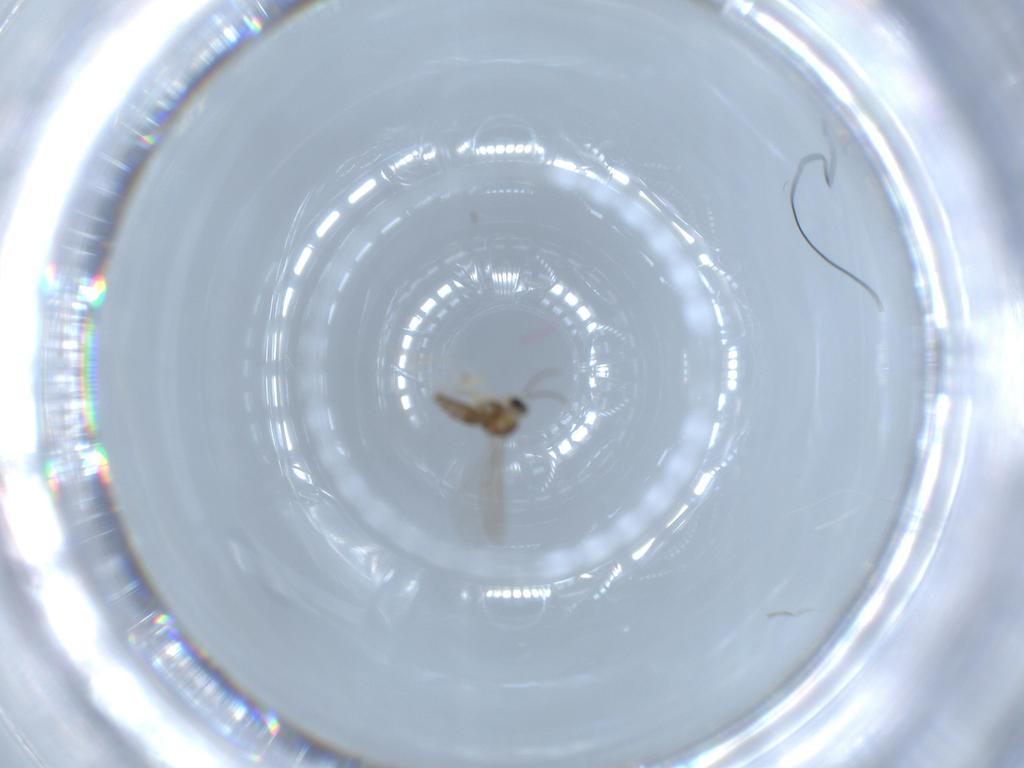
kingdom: Animalia
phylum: Arthropoda
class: Insecta
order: Diptera
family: Cecidomyiidae
